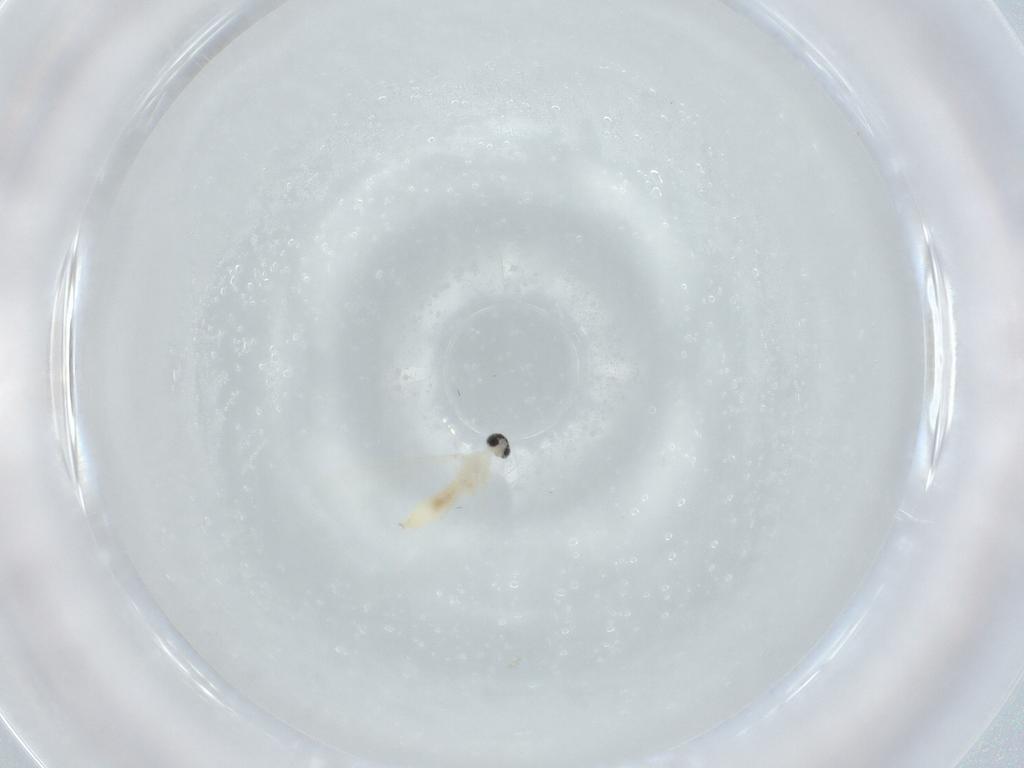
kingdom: Animalia
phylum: Arthropoda
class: Insecta
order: Diptera
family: Cecidomyiidae
